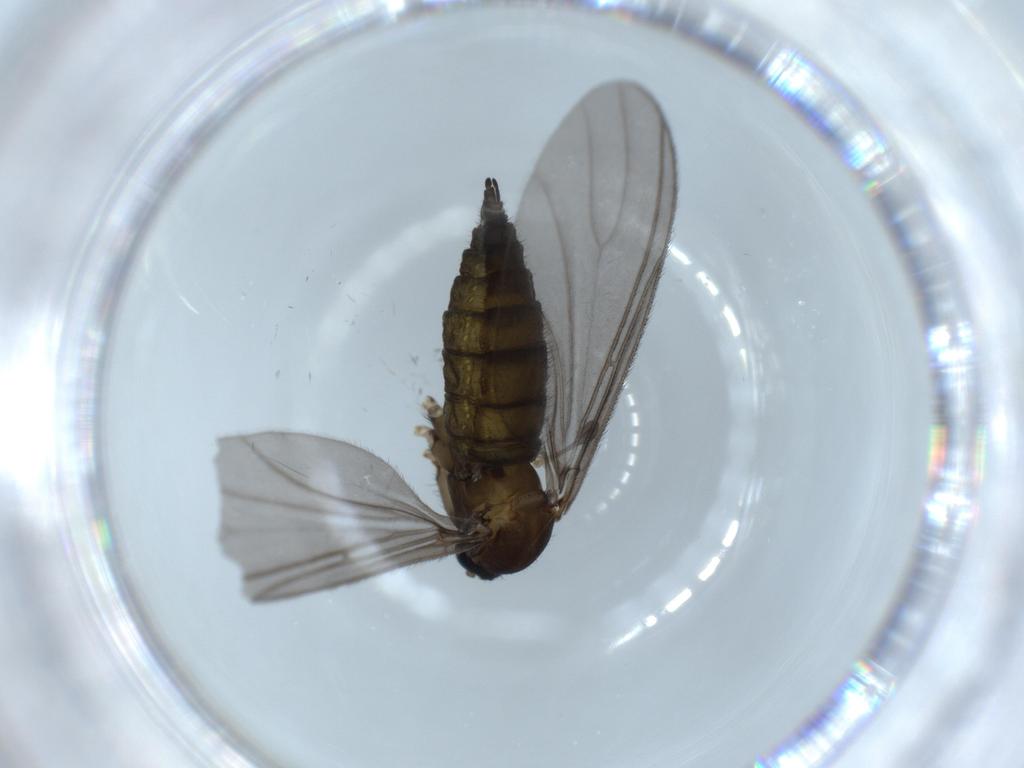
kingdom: Animalia
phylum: Arthropoda
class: Insecta
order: Diptera
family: Sciaridae
